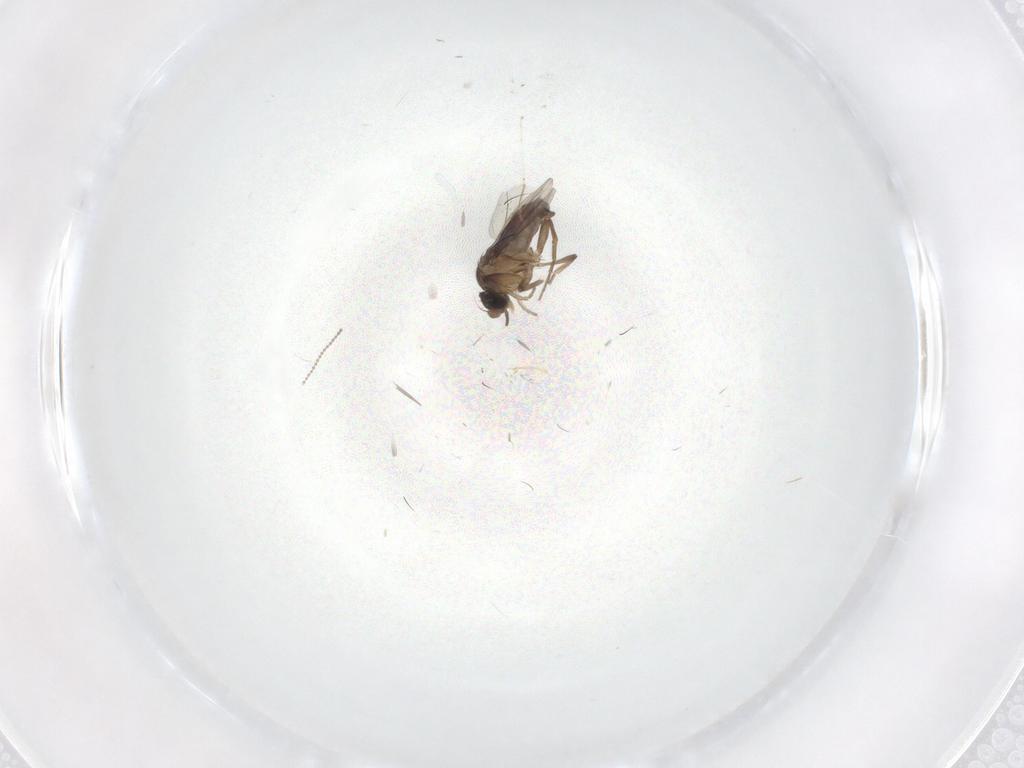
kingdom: Animalia
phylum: Arthropoda
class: Insecta
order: Diptera
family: Phoridae
